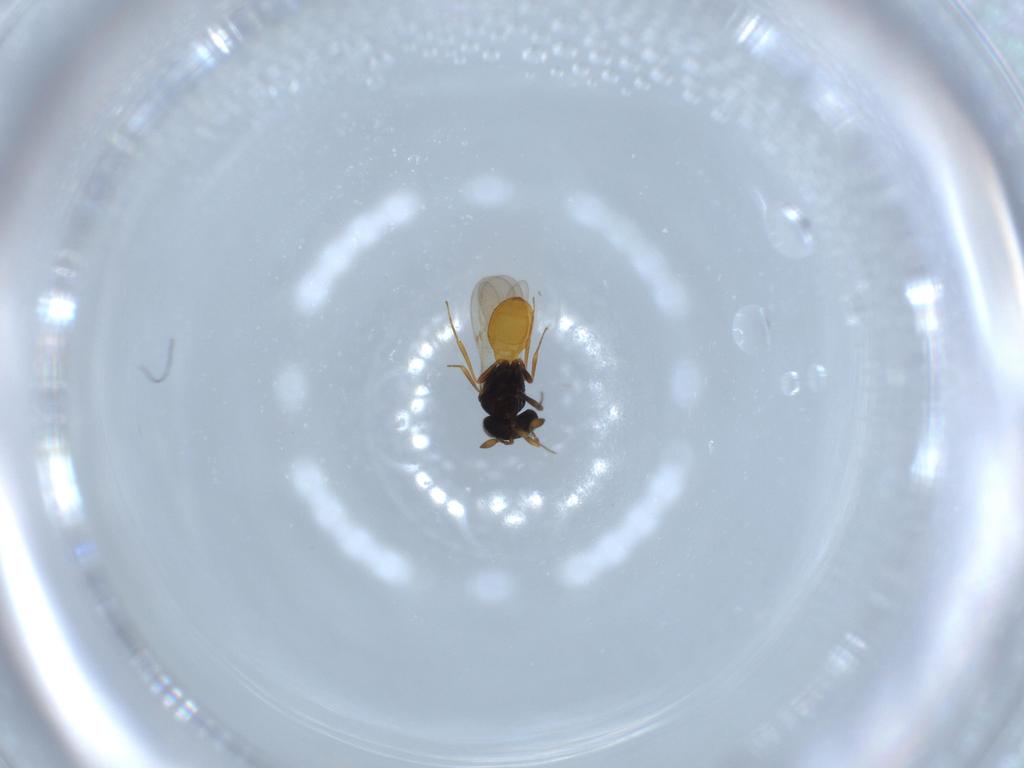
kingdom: Animalia
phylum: Arthropoda
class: Insecta
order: Hymenoptera
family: Scelionidae
